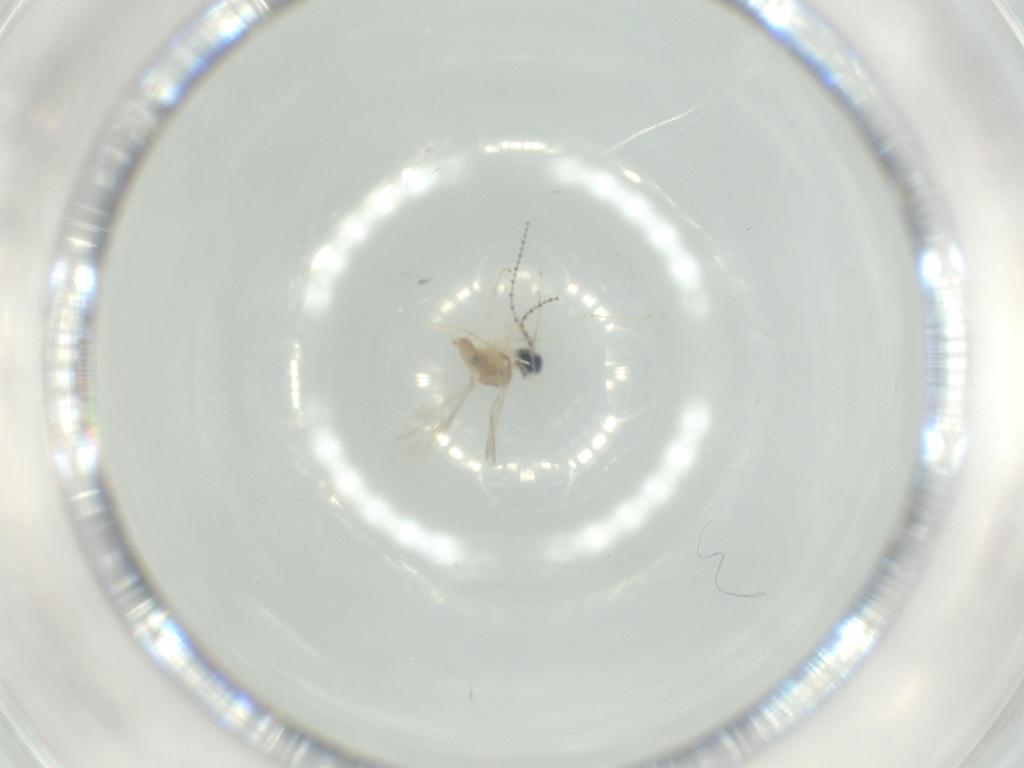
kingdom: Animalia
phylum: Arthropoda
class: Insecta
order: Diptera
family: Cecidomyiidae
